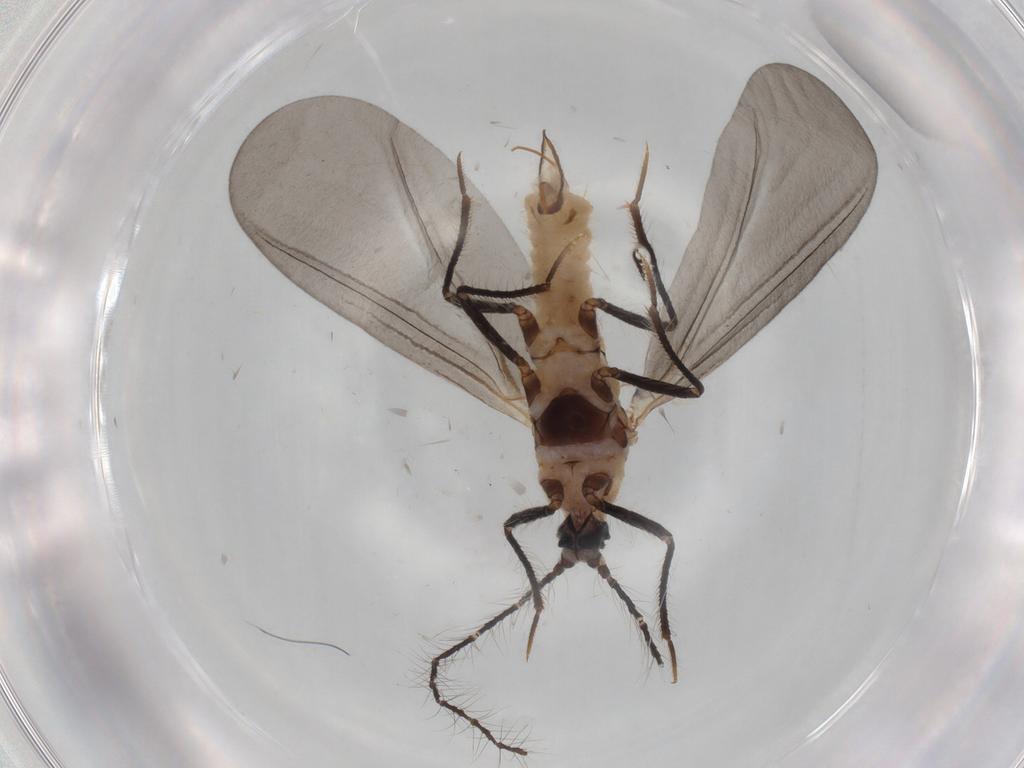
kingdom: Animalia
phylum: Arthropoda
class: Insecta
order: Hemiptera
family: Putoidae
